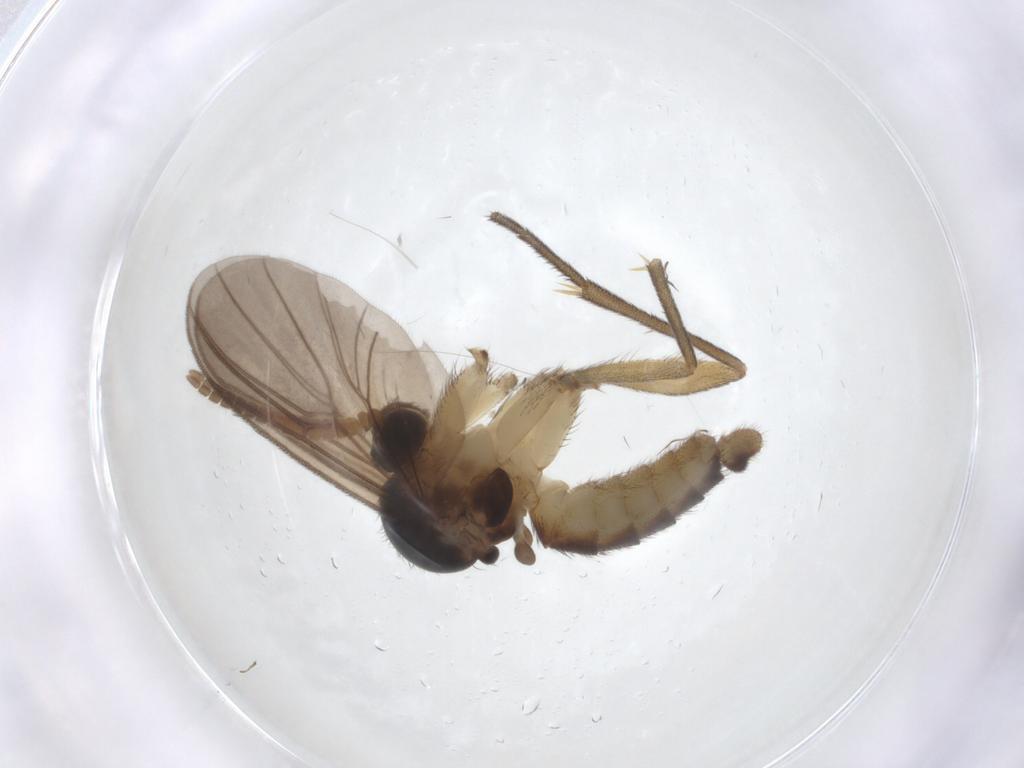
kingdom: Animalia
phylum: Arthropoda
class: Insecta
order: Diptera
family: Mycetophilidae
